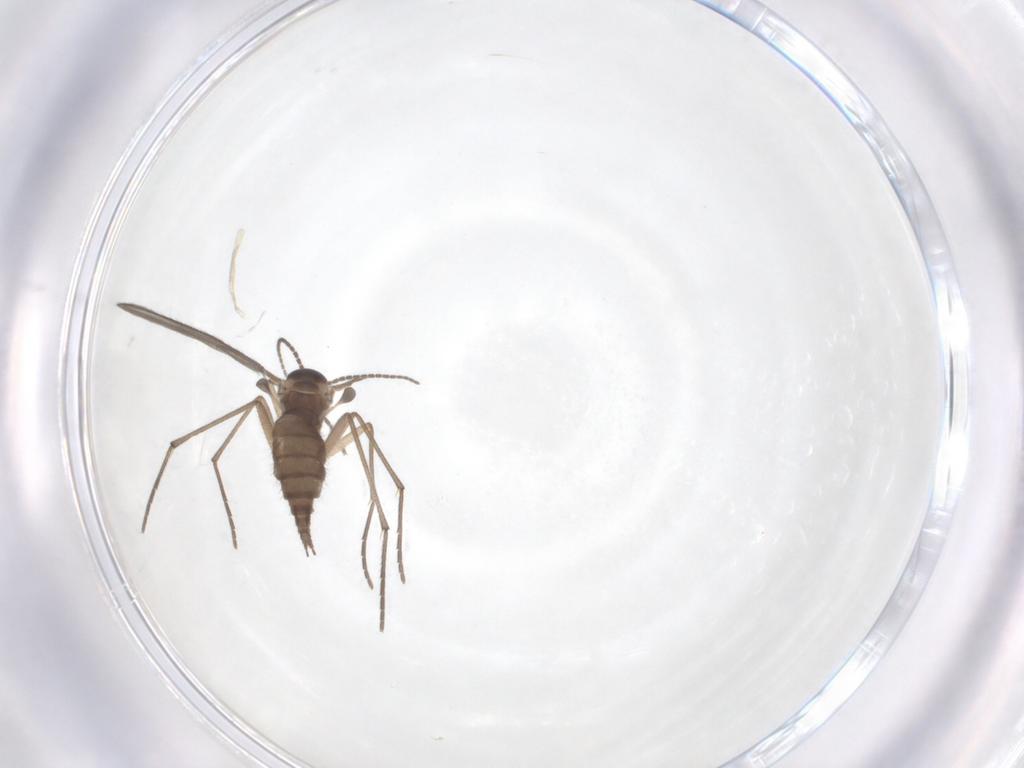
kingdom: Animalia
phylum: Arthropoda
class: Insecta
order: Diptera
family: Sciaridae
